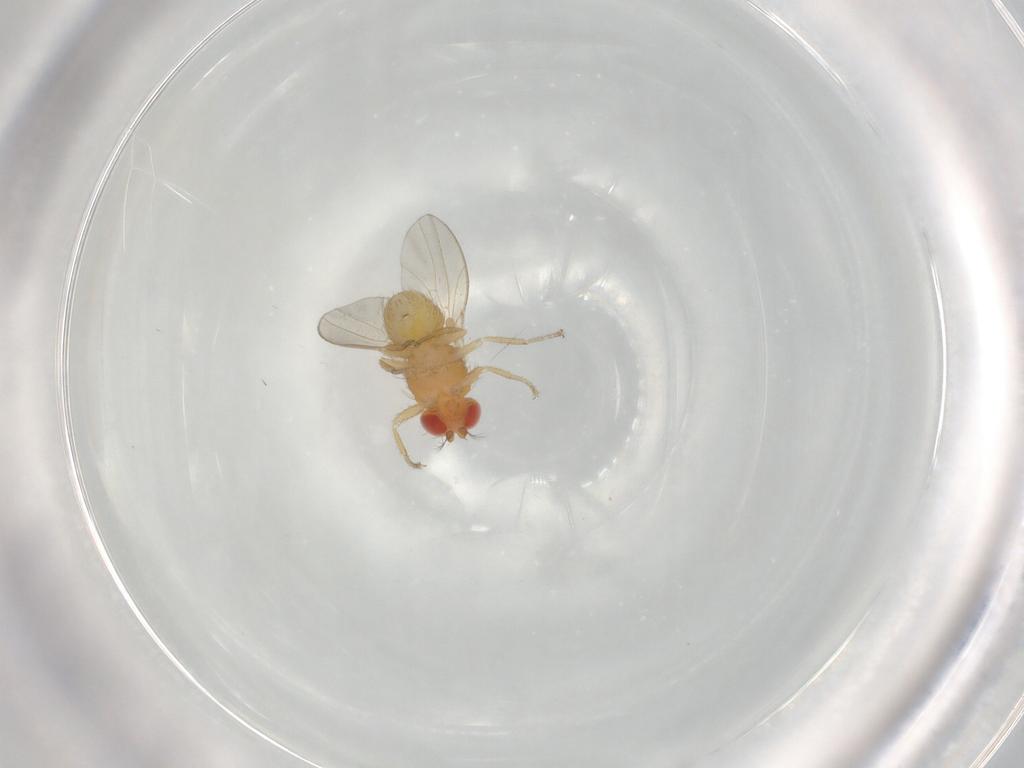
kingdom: Animalia
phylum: Arthropoda
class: Insecta
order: Diptera
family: Drosophilidae
